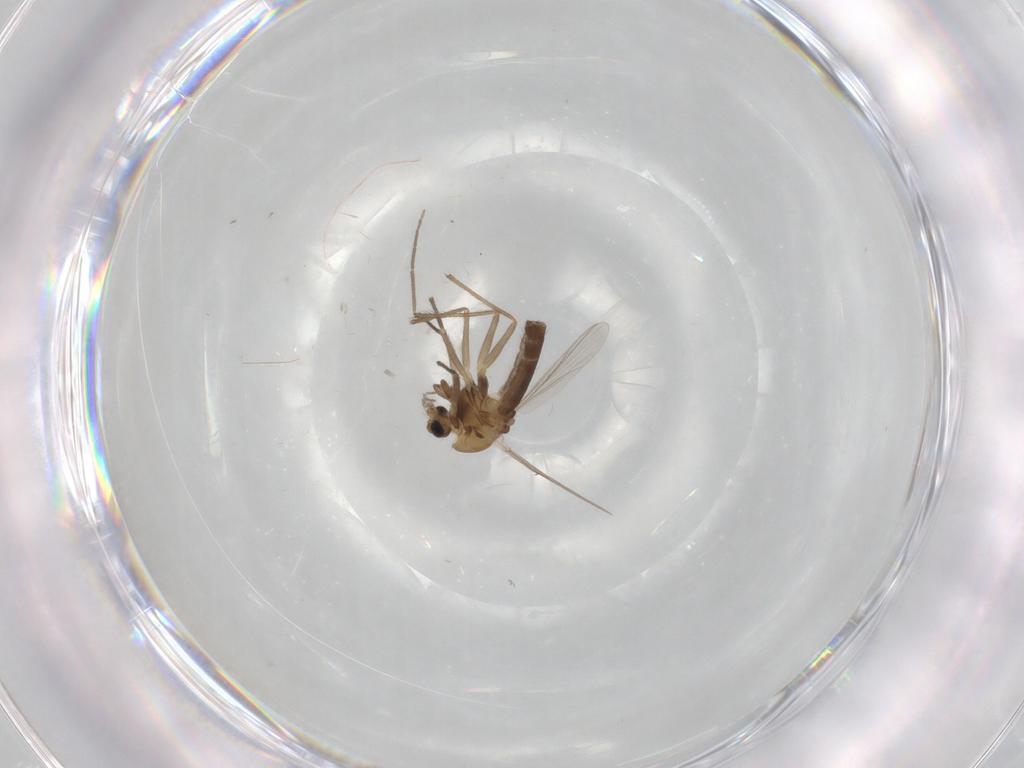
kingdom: Animalia
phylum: Arthropoda
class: Insecta
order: Diptera
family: Chironomidae
